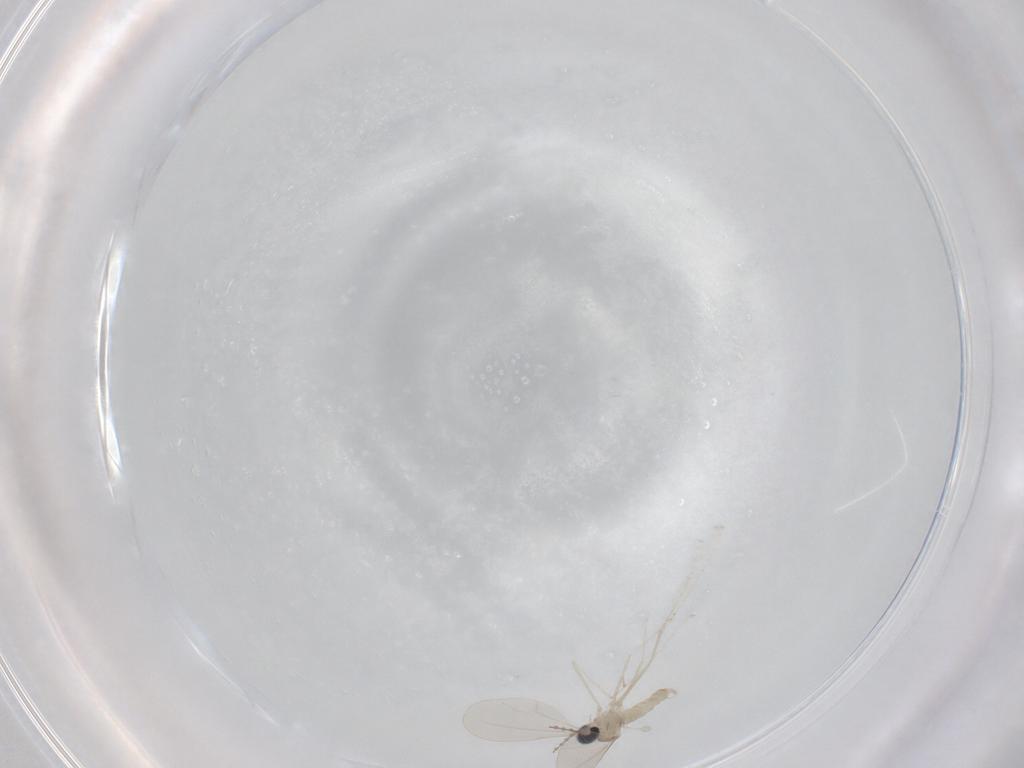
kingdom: Animalia
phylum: Arthropoda
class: Insecta
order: Diptera
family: Cecidomyiidae
